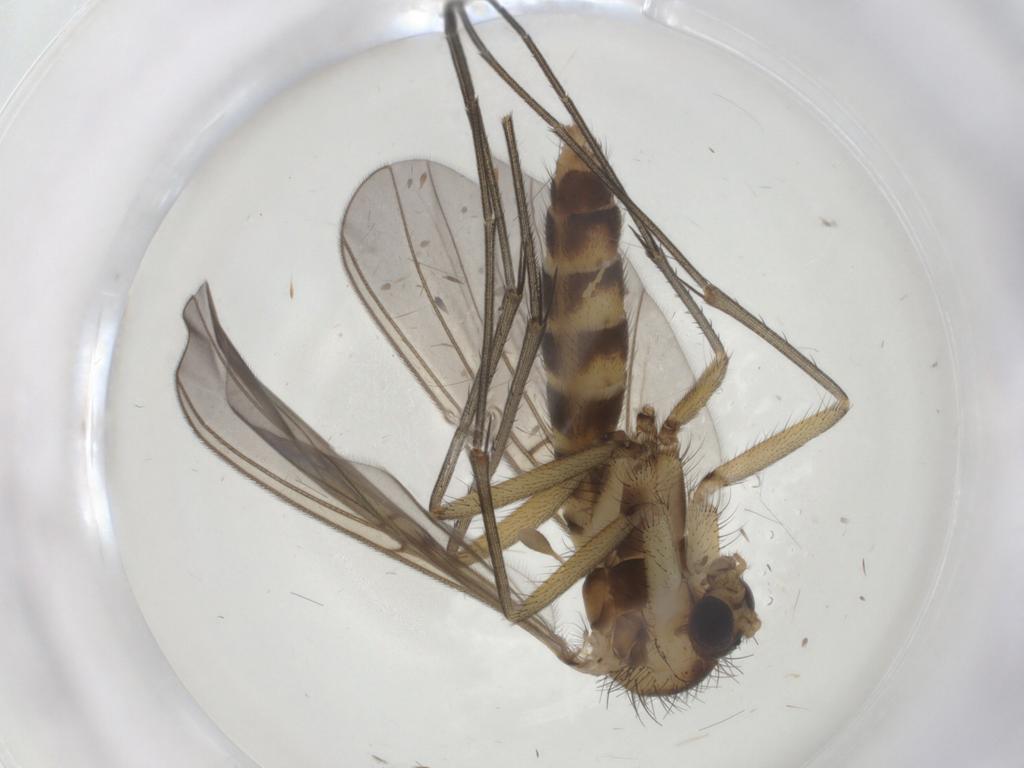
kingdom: Animalia
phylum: Arthropoda
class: Insecta
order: Diptera
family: Mycetophilidae
